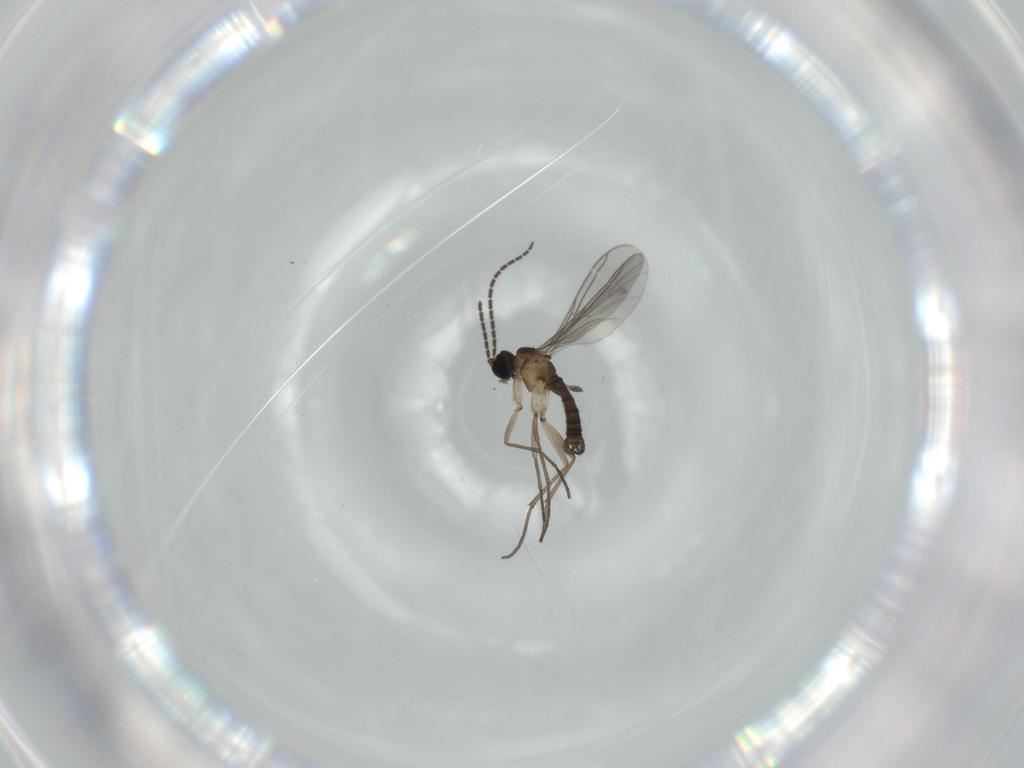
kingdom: Animalia
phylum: Arthropoda
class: Insecta
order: Diptera
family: Sciaridae
